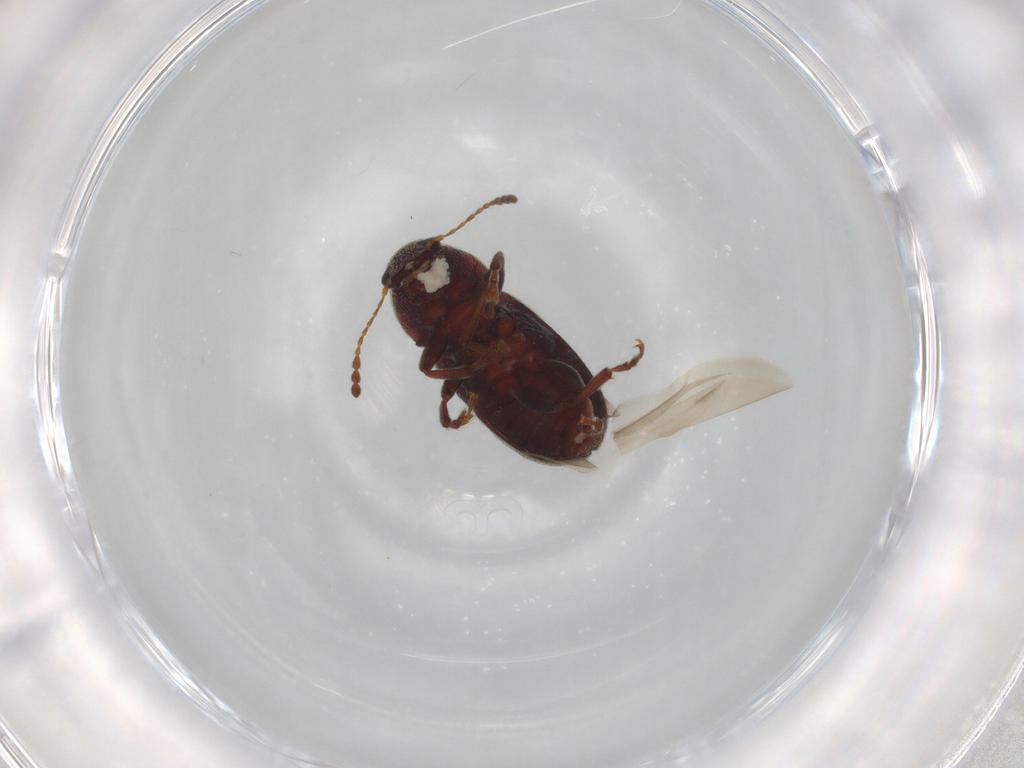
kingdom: Animalia
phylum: Arthropoda
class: Insecta
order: Coleoptera
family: Anthribidae
